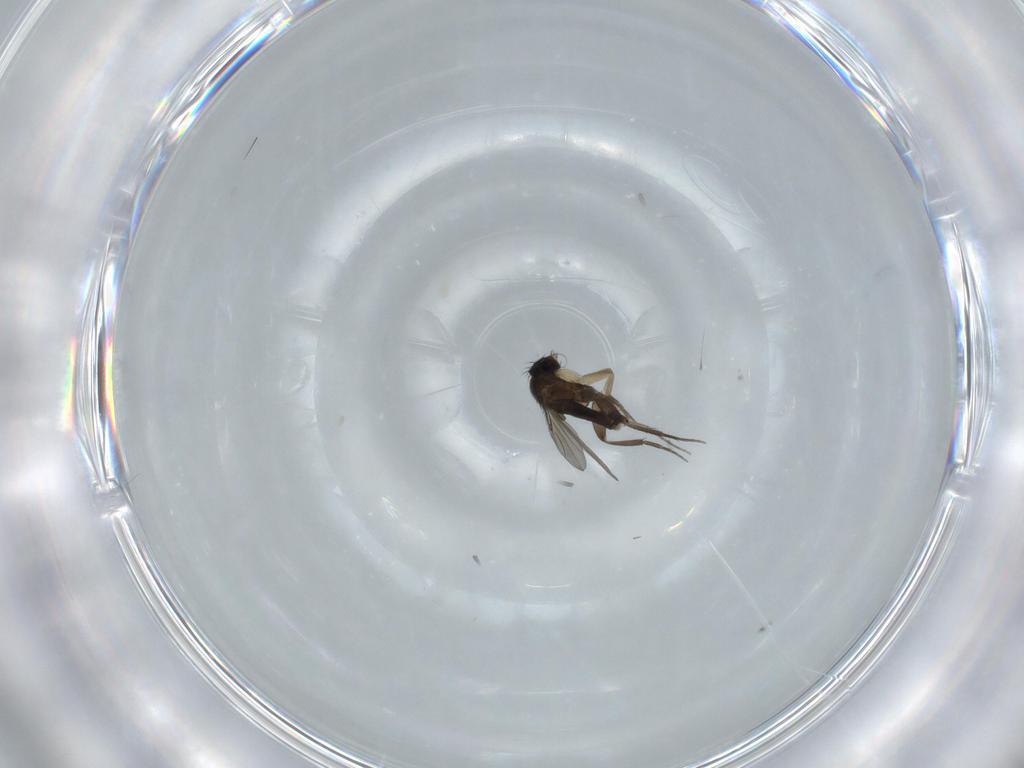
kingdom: Animalia
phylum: Arthropoda
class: Insecta
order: Diptera
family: Phoridae
